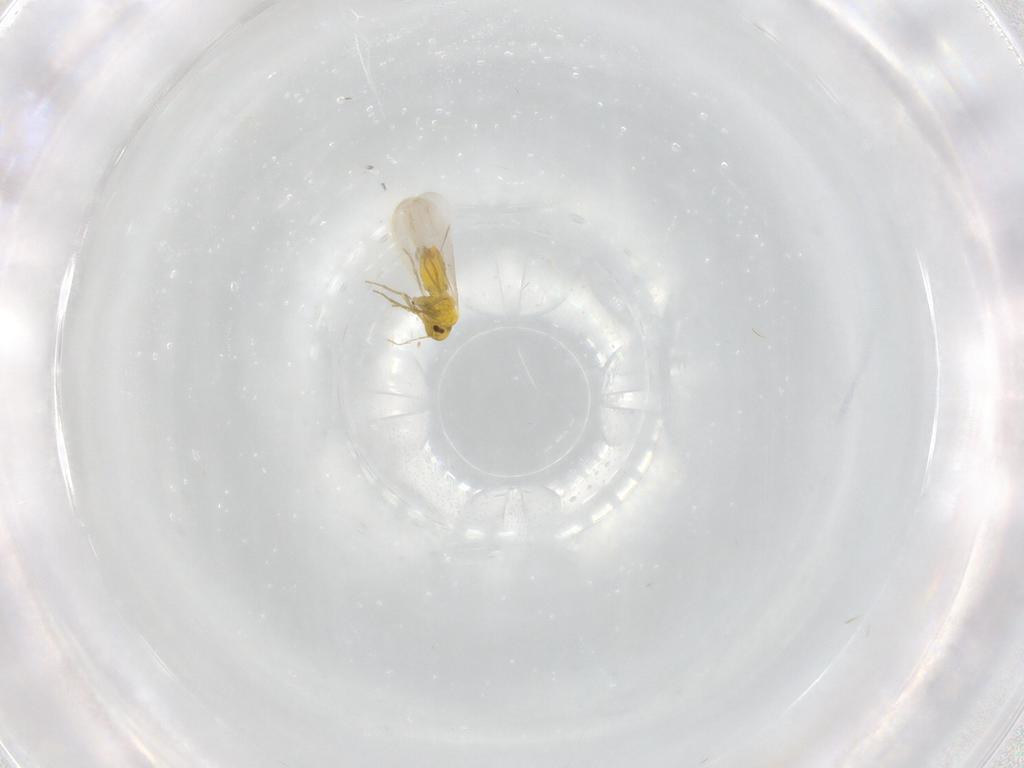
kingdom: Animalia
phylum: Arthropoda
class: Insecta
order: Hemiptera
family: Aleyrodidae
